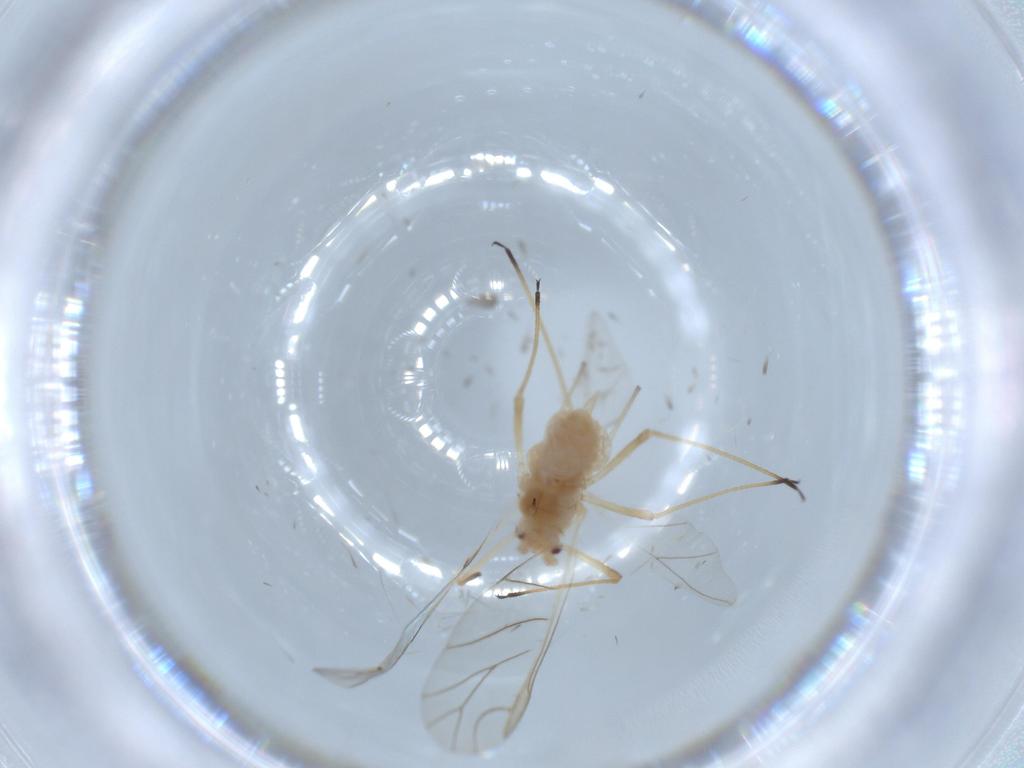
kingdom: Animalia
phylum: Arthropoda
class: Insecta
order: Hemiptera
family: Aphididae
